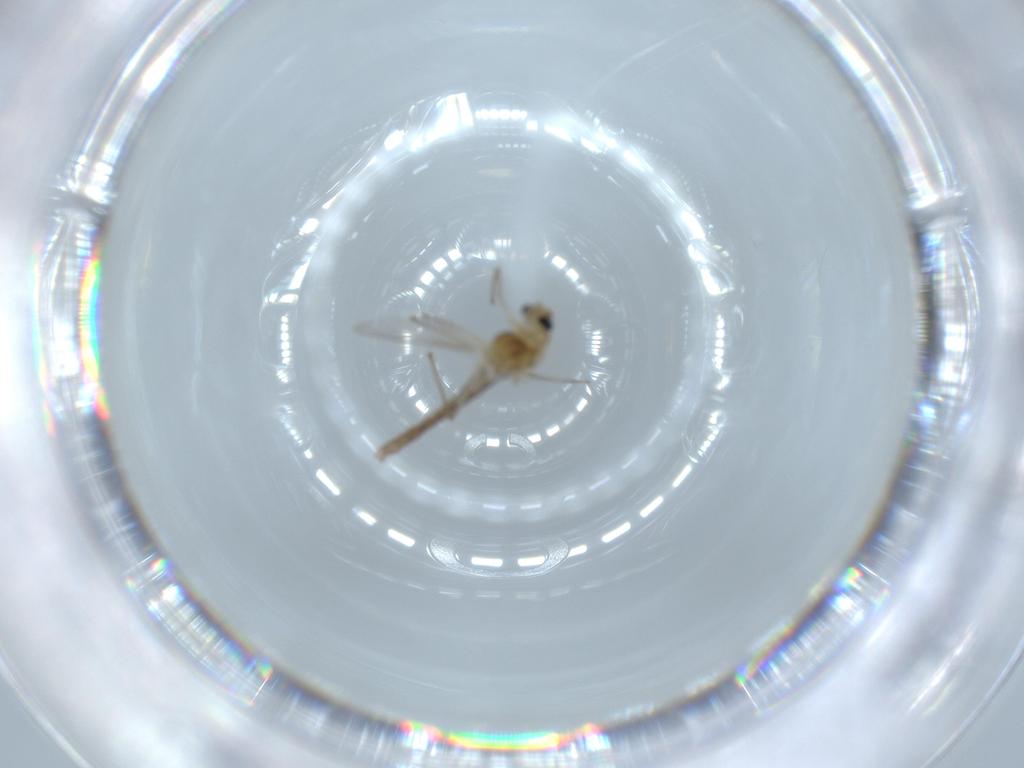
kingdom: Animalia
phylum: Arthropoda
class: Insecta
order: Diptera
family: Chironomidae
